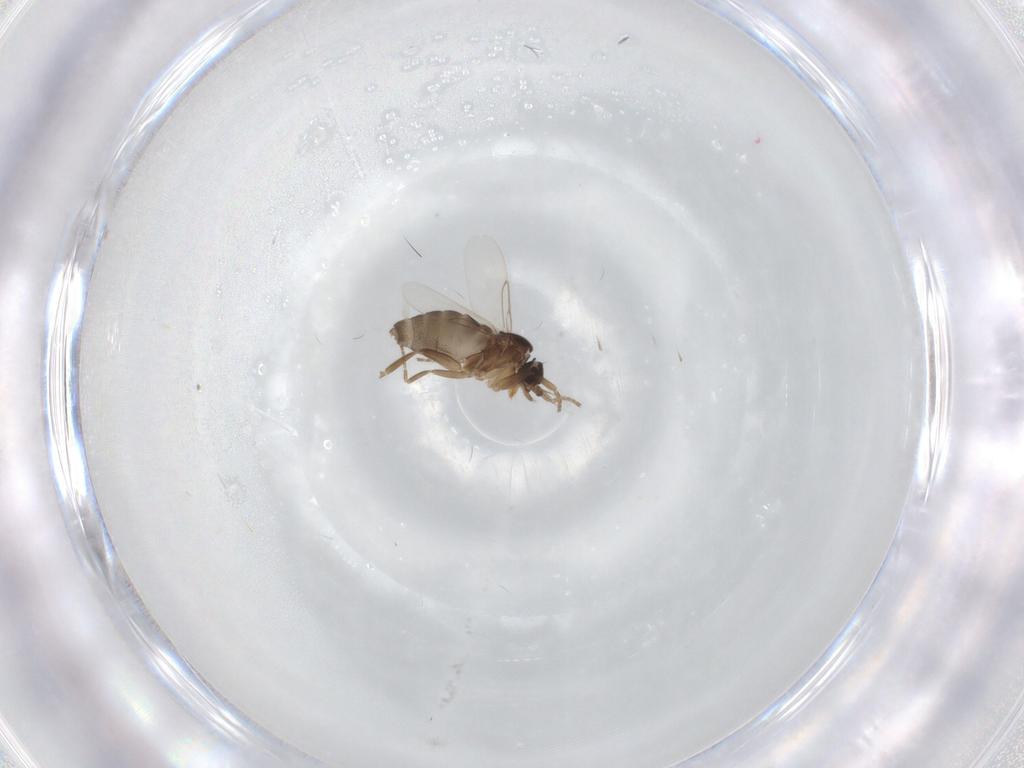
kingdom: Animalia
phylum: Arthropoda
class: Insecta
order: Diptera
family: Phoridae
